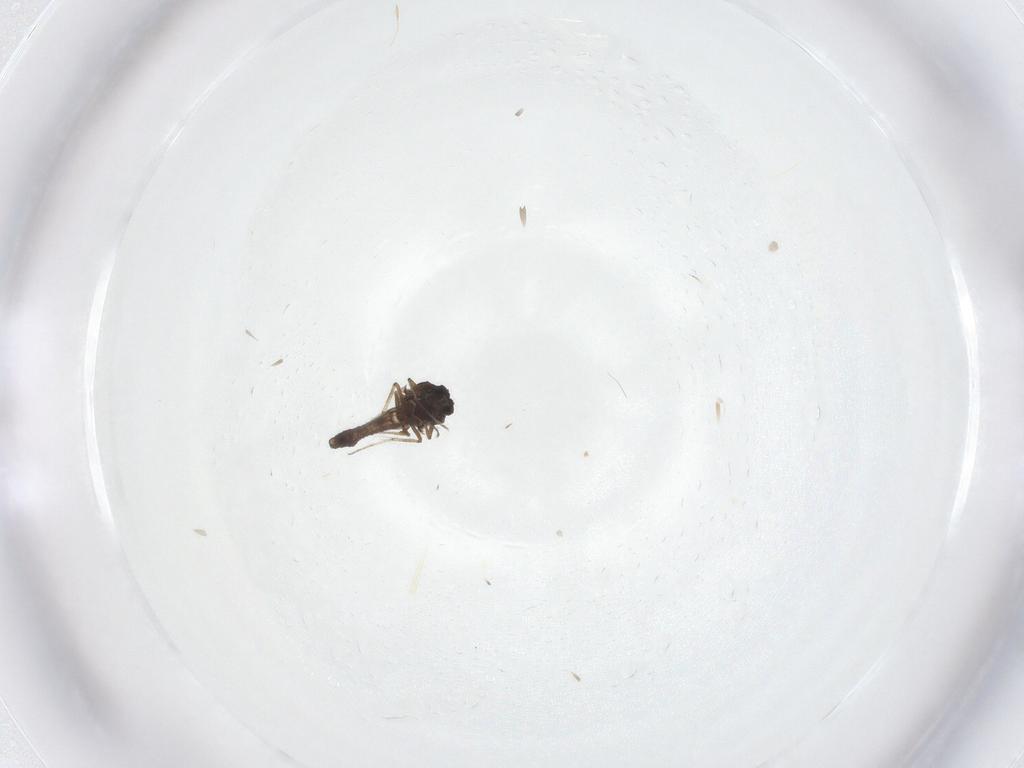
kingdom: Animalia
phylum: Arthropoda
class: Insecta
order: Diptera
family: Ceratopogonidae
